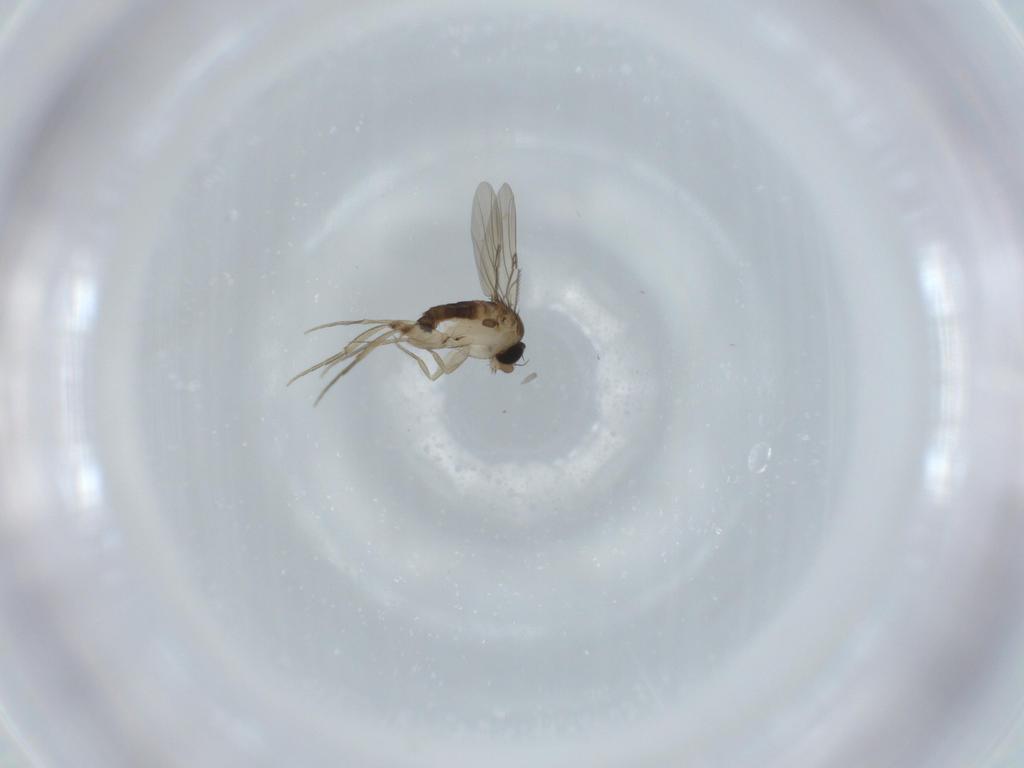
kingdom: Animalia
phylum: Arthropoda
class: Insecta
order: Diptera
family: Phoridae
